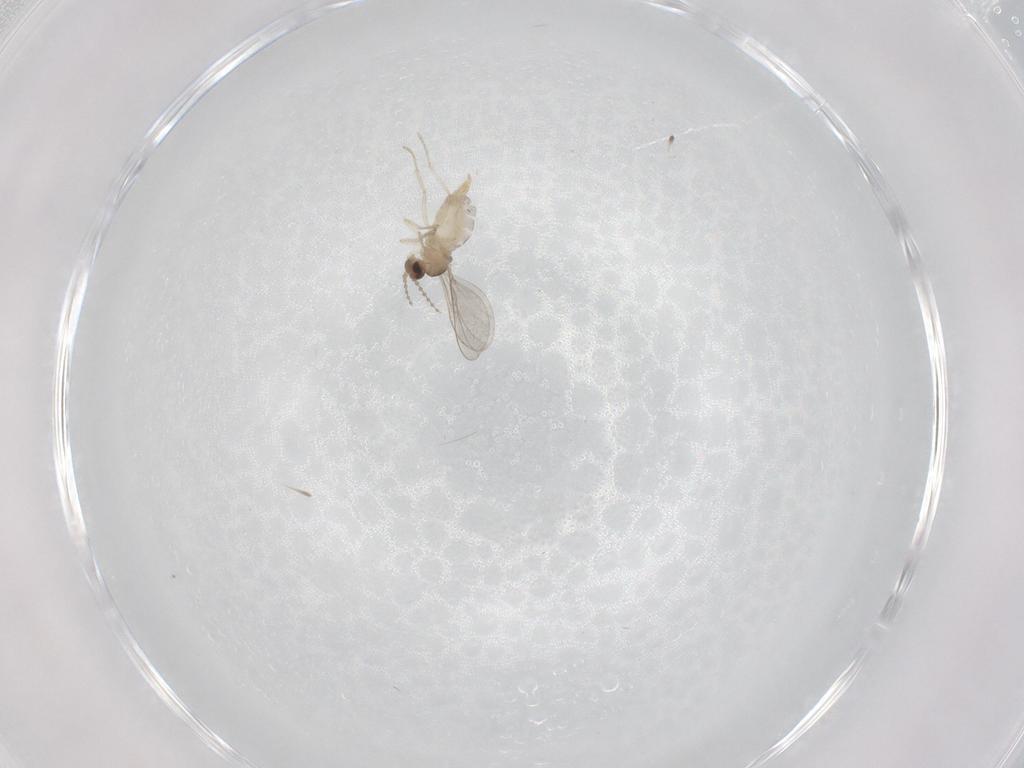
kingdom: Animalia
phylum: Arthropoda
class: Insecta
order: Diptera
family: Cecidomyiidae
